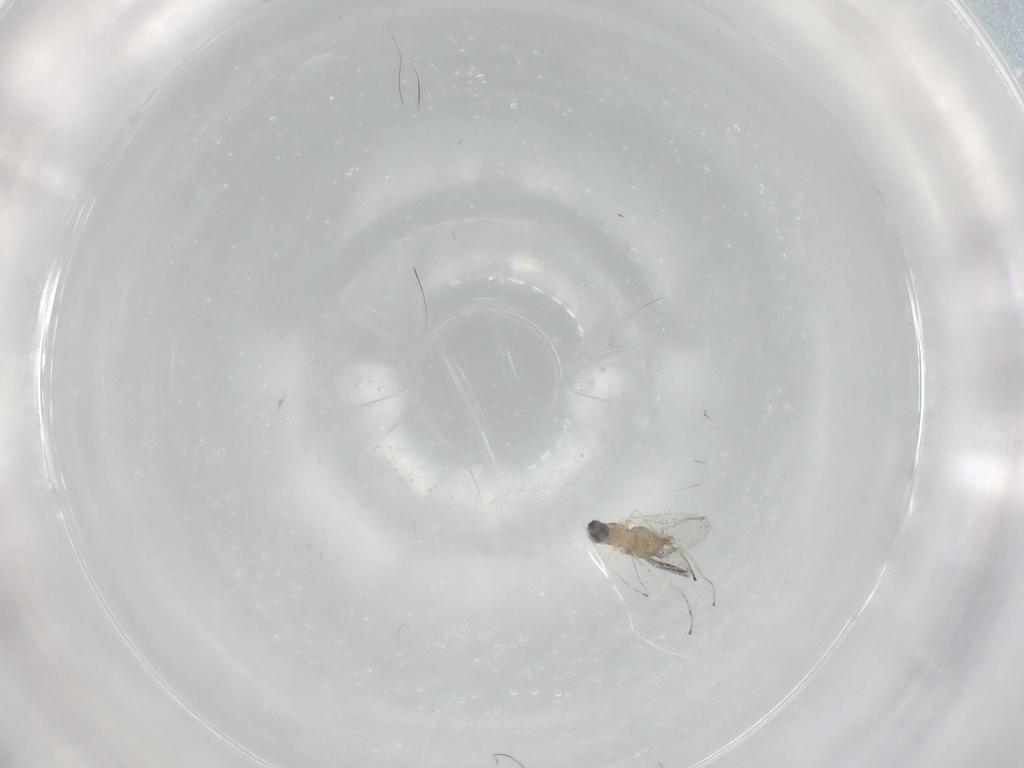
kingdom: Animalia
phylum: Arthropoda
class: Insecta
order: Diptera
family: Cecidomyiidae
